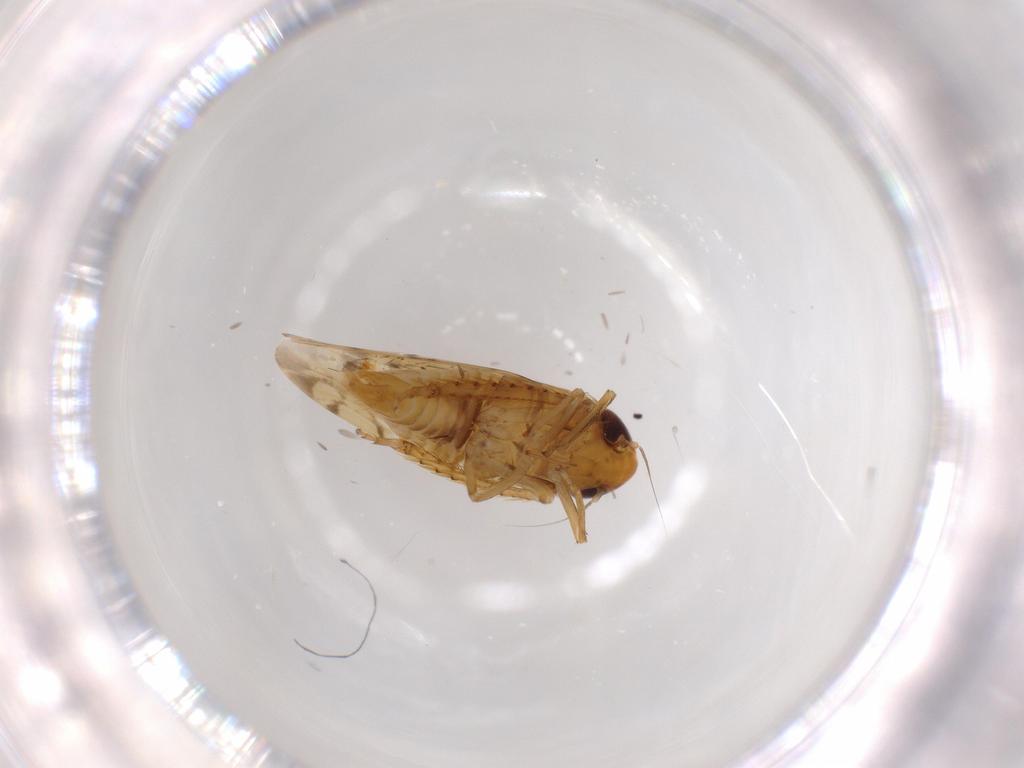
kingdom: Animalia
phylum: Arthropoda
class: Insecta
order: Hemiptera
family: Cicadellidae
